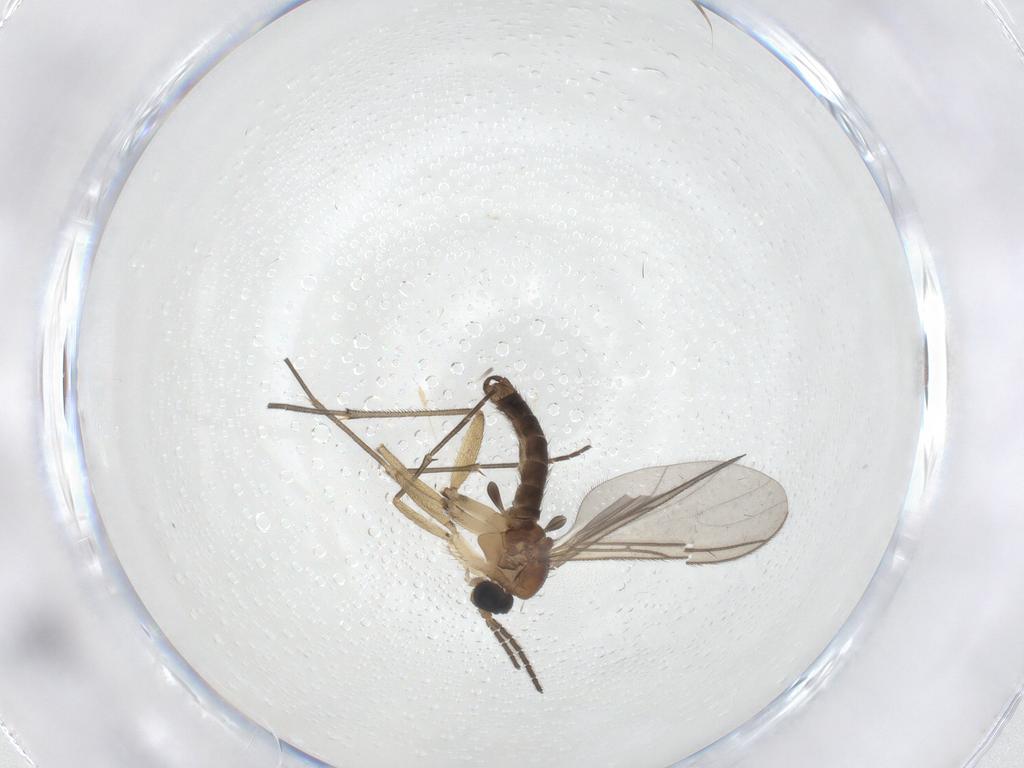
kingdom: Animalia
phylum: Arthropoda
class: Insecta
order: Diptera
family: Sciaridae
